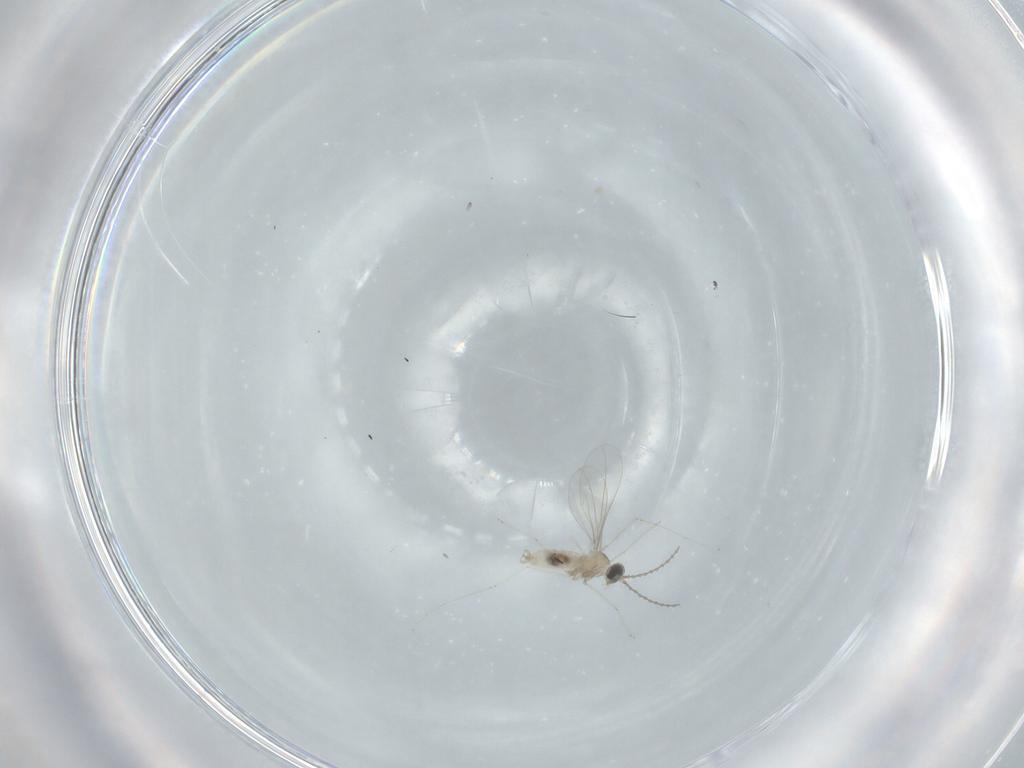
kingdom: Animalia
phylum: Arthropoda
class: Insecta
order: Diptera
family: Cecidomyiidae
